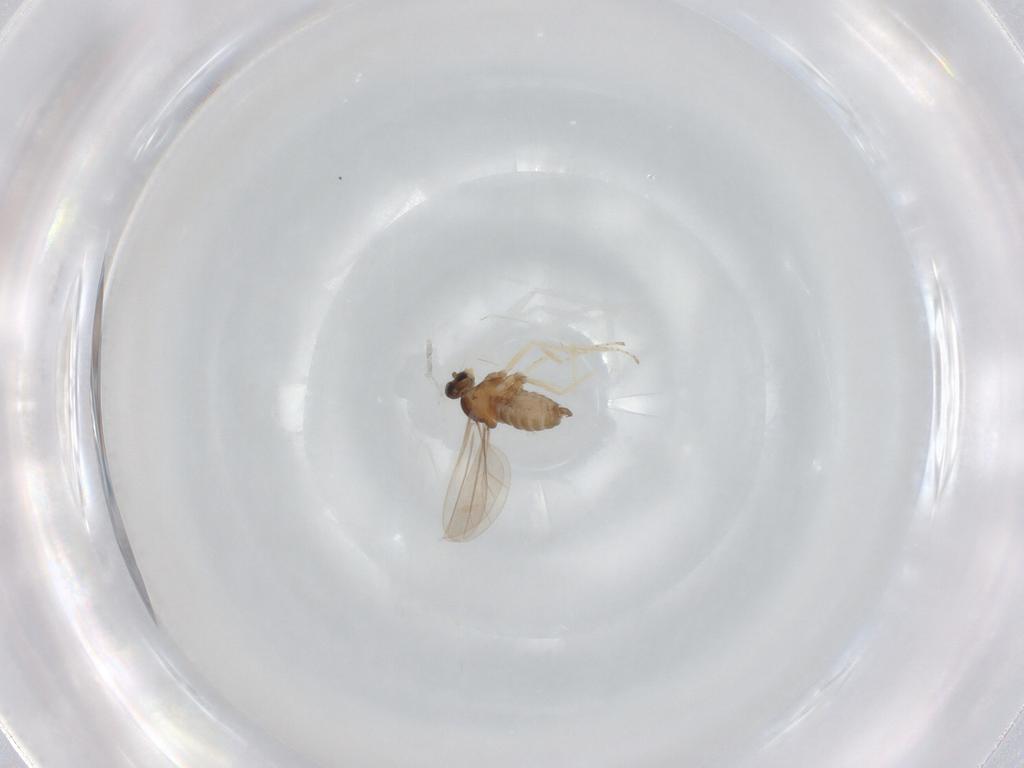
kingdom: Animalia
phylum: Arthropoda
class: Insecta
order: Diptera
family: Cecidomyiidae
